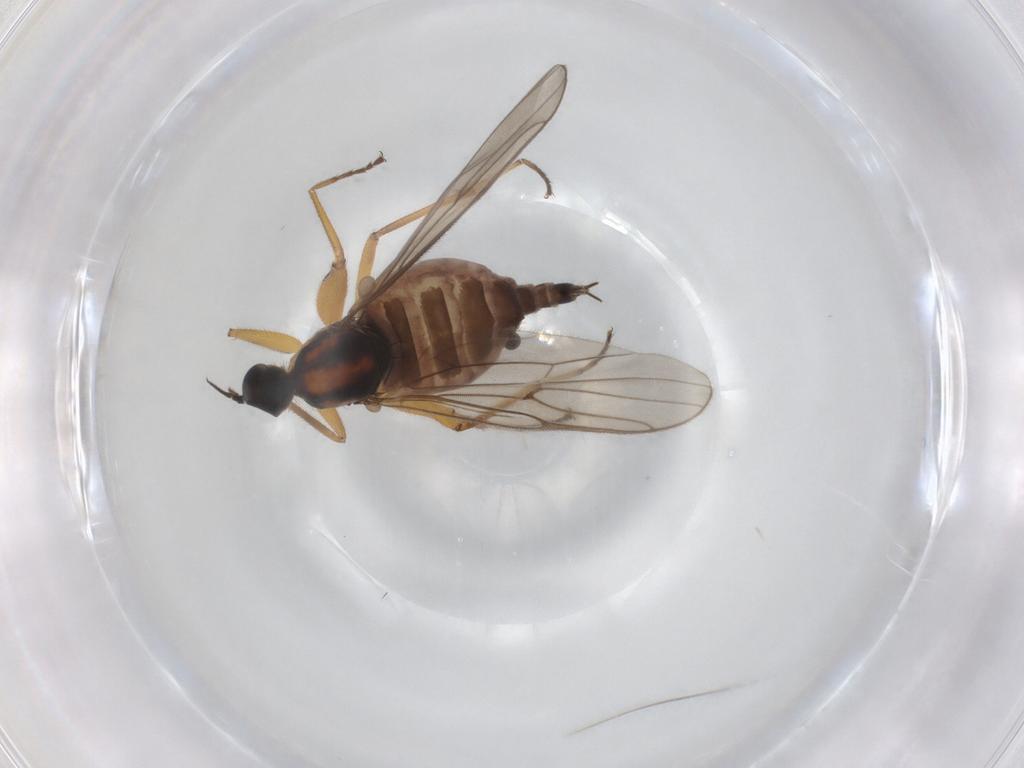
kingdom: Animalia
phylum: Arthropoda
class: Insecta
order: Diptera
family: Hybotidae
